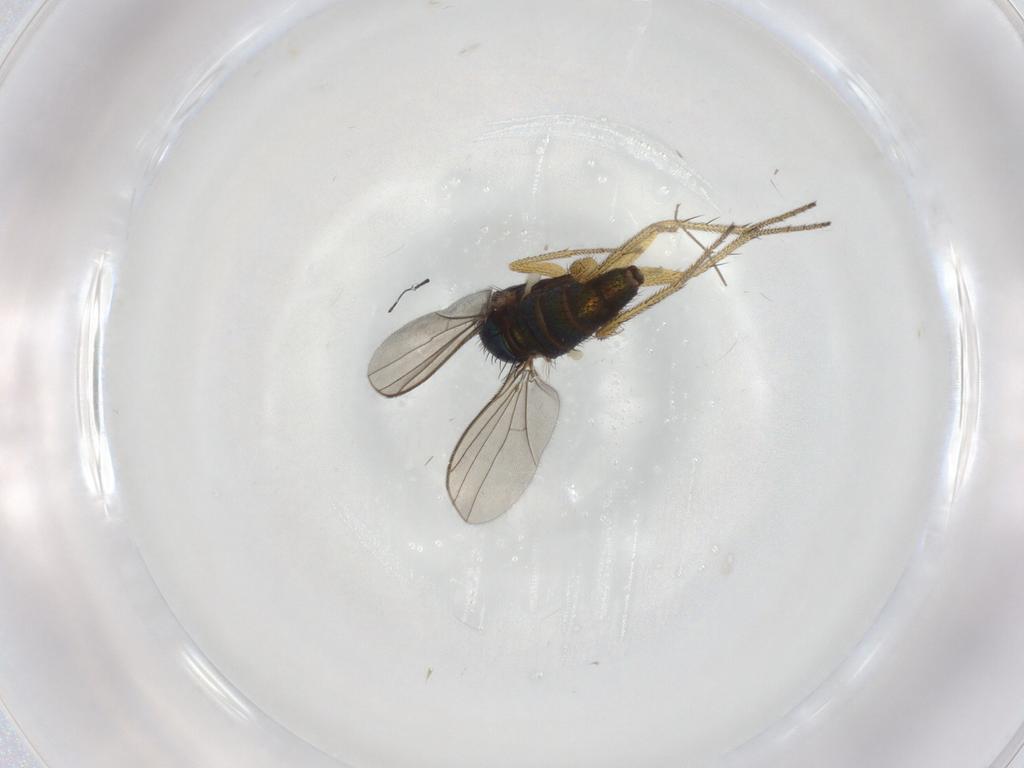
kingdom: Animalia
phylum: Arthropoda
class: Insecta
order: Diptera
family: Chironomidae
